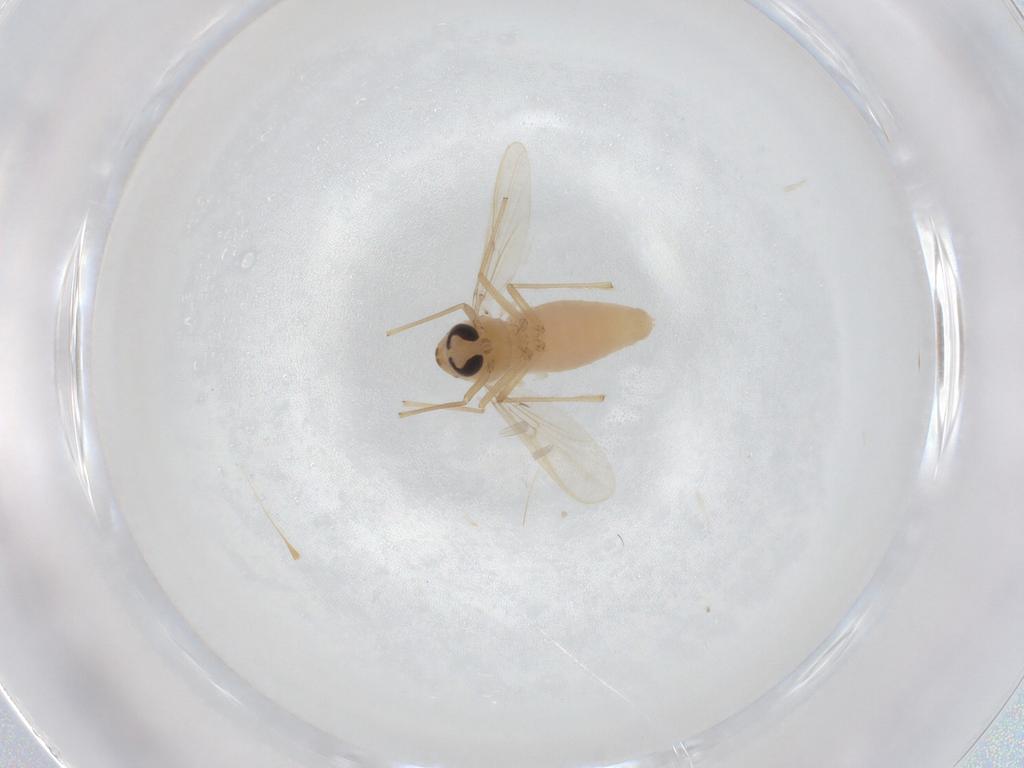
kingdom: Animalia
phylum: Arthropoda
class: Insecta
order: Diptera
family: Chironomidae
